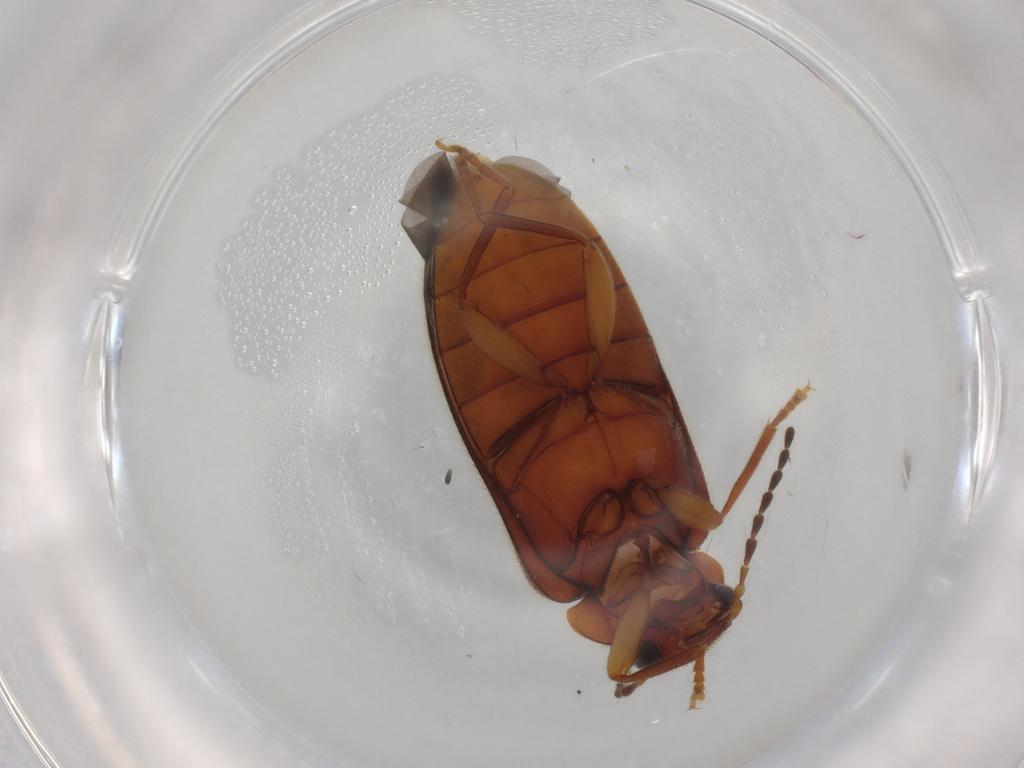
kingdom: Animalia
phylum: Arthropoda
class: Insecta
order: Coleoptera
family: Scirtidae
